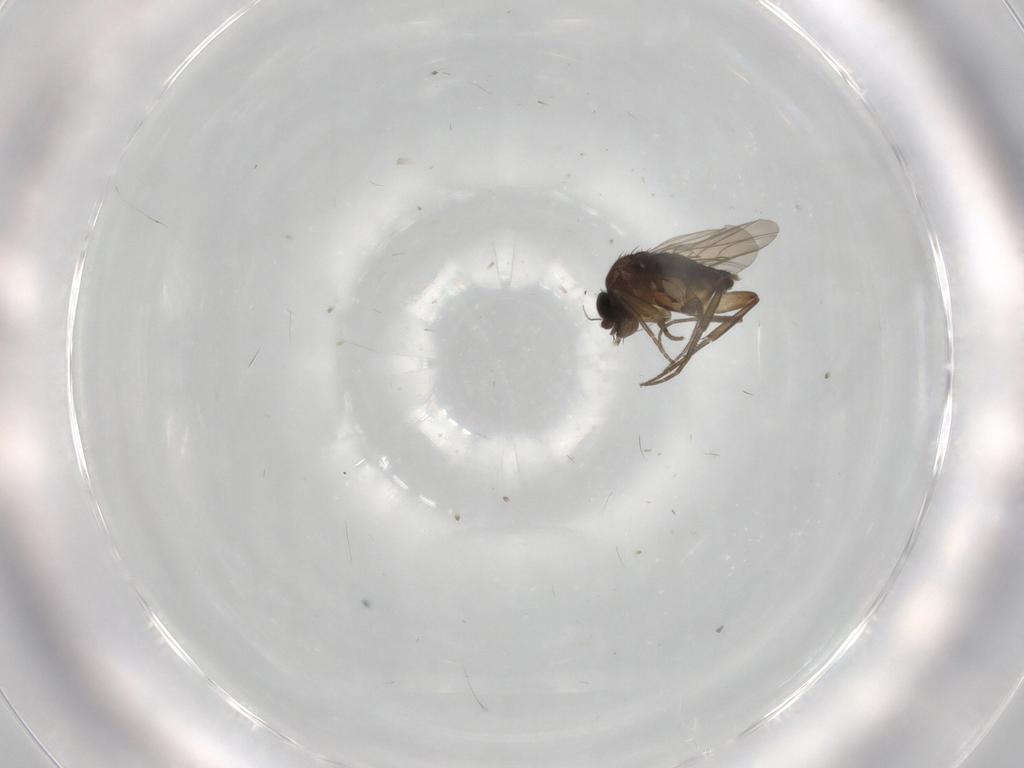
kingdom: Animalia
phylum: Arthropoda
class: Insecta
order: Diptera
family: Phoridae
